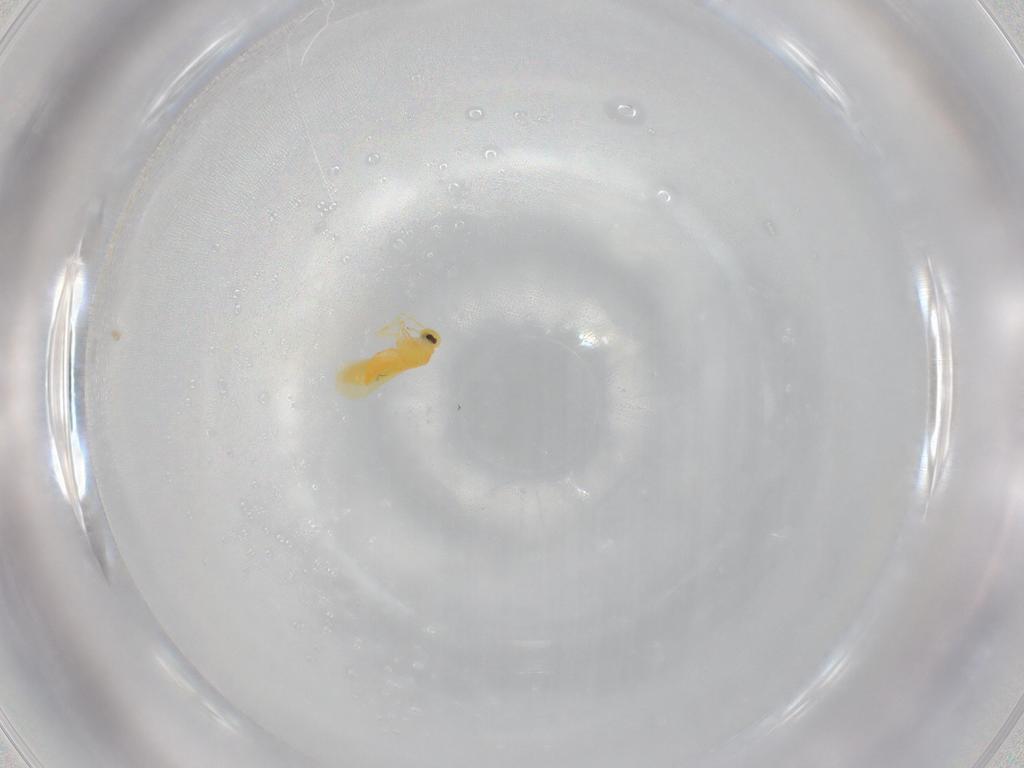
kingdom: Animalia
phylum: Arthropoda
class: Insecta
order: Hemiptera
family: Aleyrodidae
